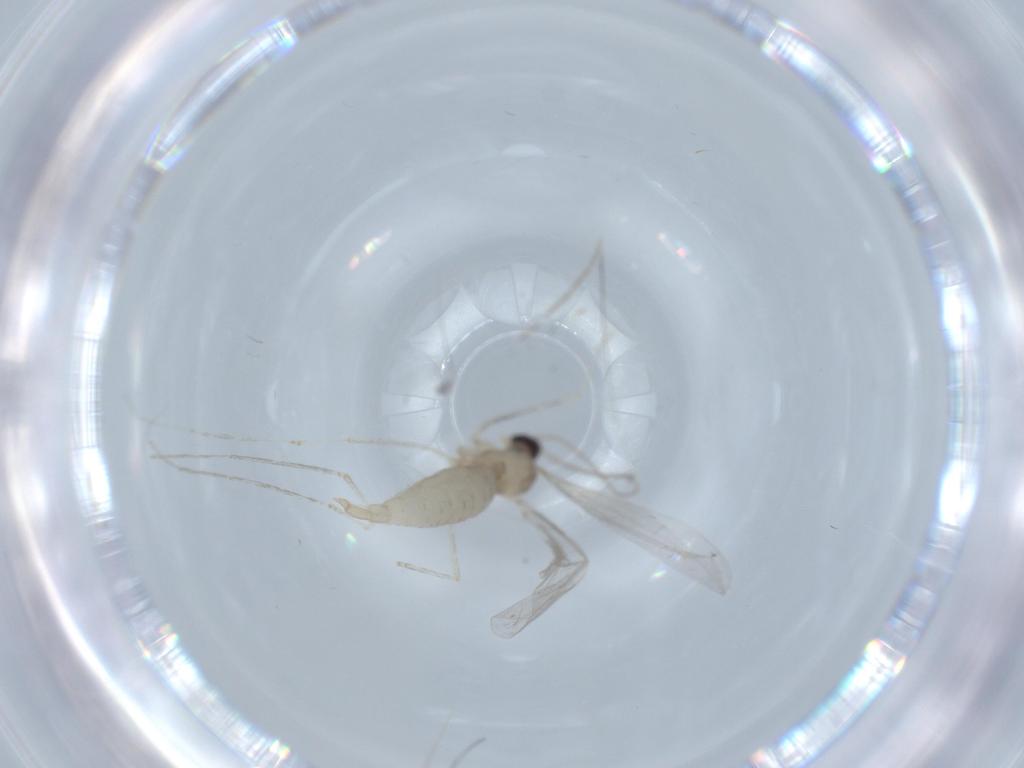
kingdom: Animalia
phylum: Arthropoda
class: Insecta
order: Diptera
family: Cecidomyiidae
